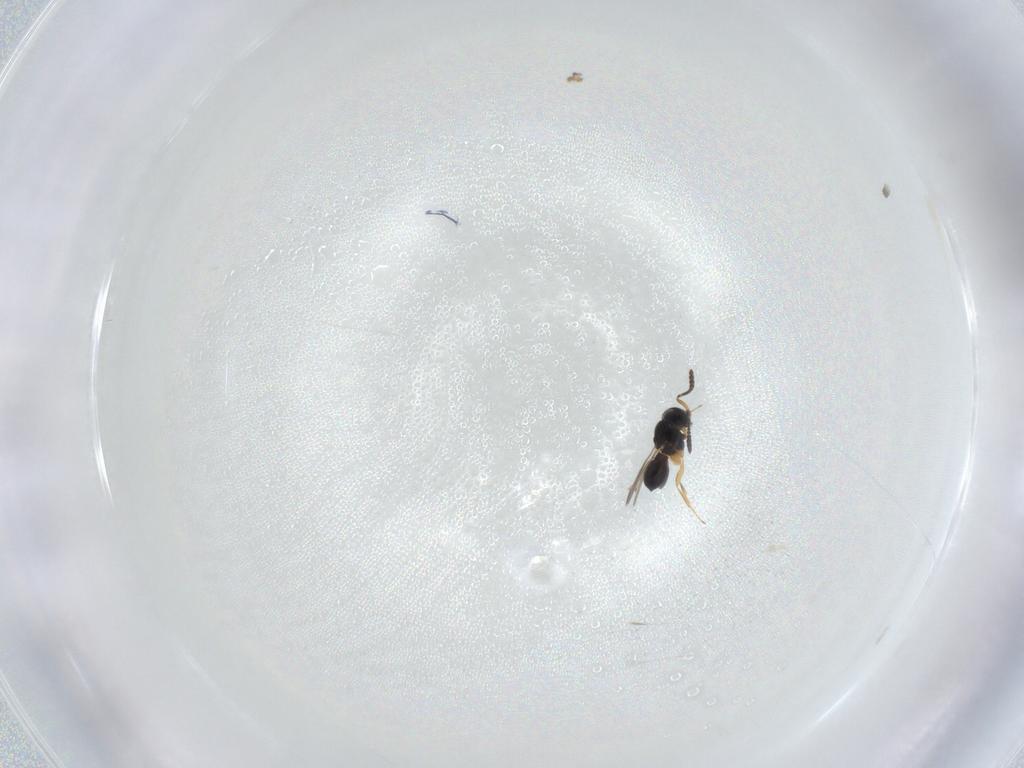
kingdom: Animalia
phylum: Arthropoda
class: Insecta
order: Hymenoptera
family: Scelionidae
